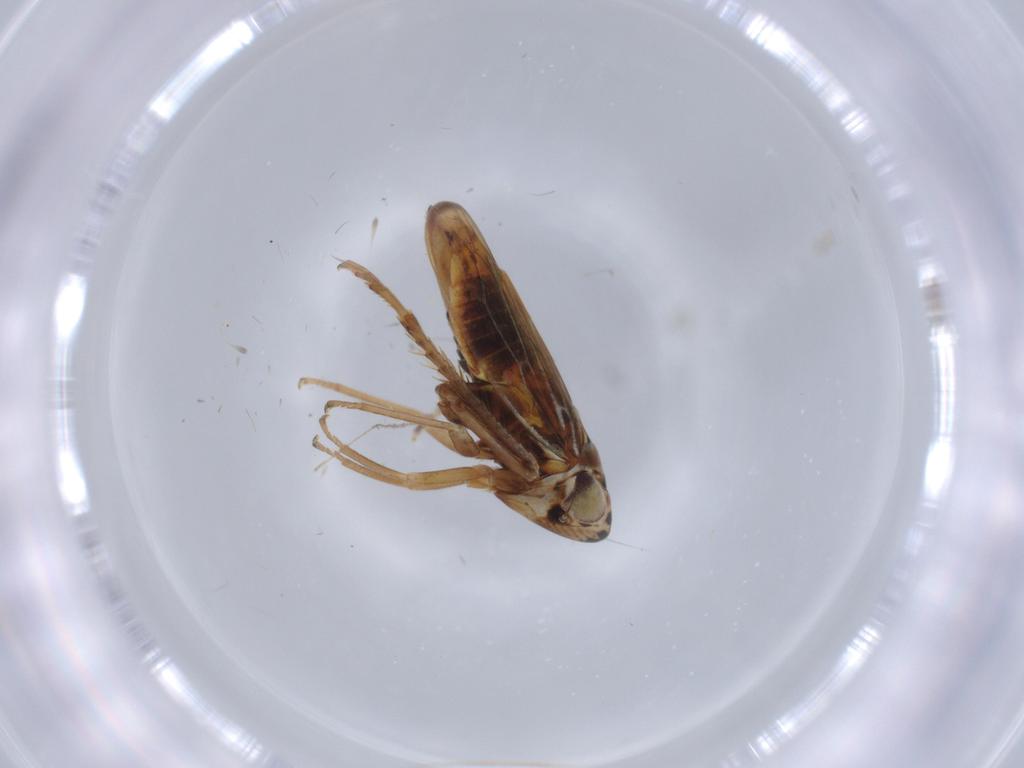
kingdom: Animalia
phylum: Arthropoda
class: Insecta
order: Hemiptera
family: Cicadellidae
